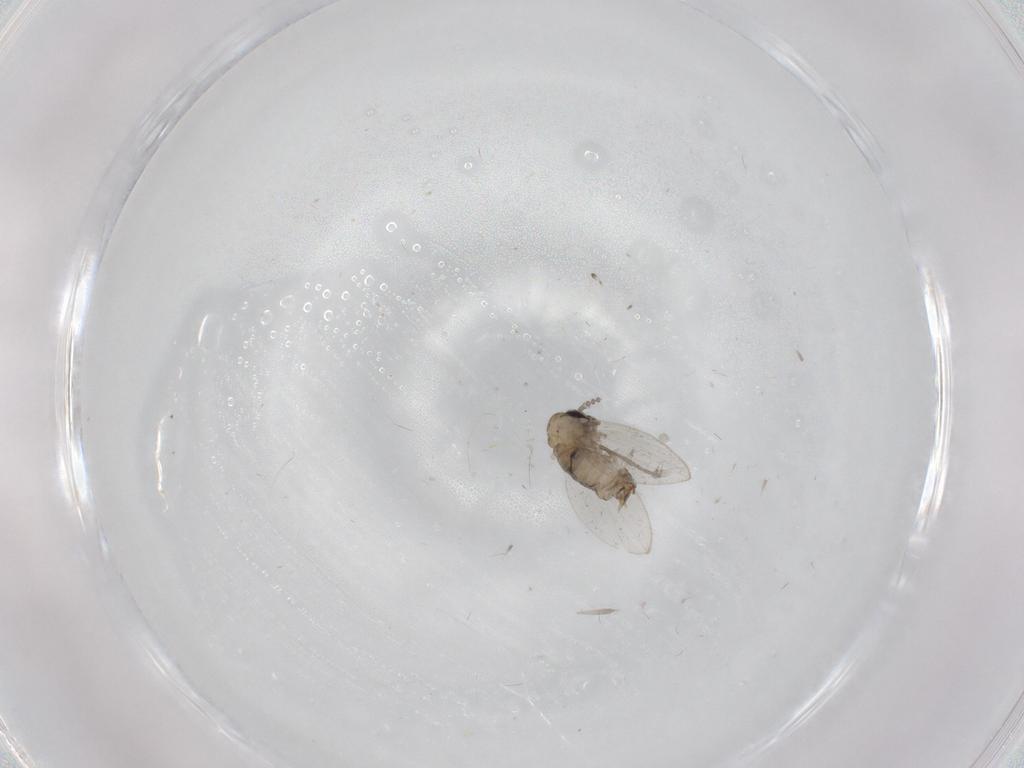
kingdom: Animalia
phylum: Arthropoda
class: Insecta
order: Diptera
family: Psychodidae
